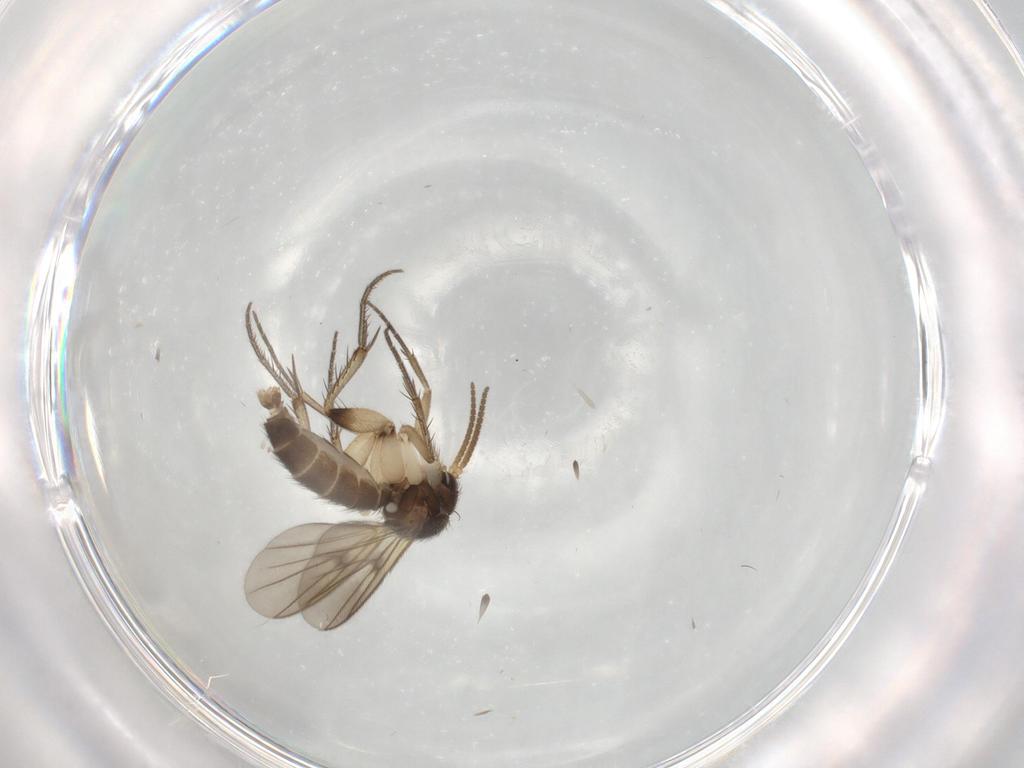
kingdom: Animalia
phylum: Arthropoda
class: Insecta
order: Diptera
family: Mycetophilidae
